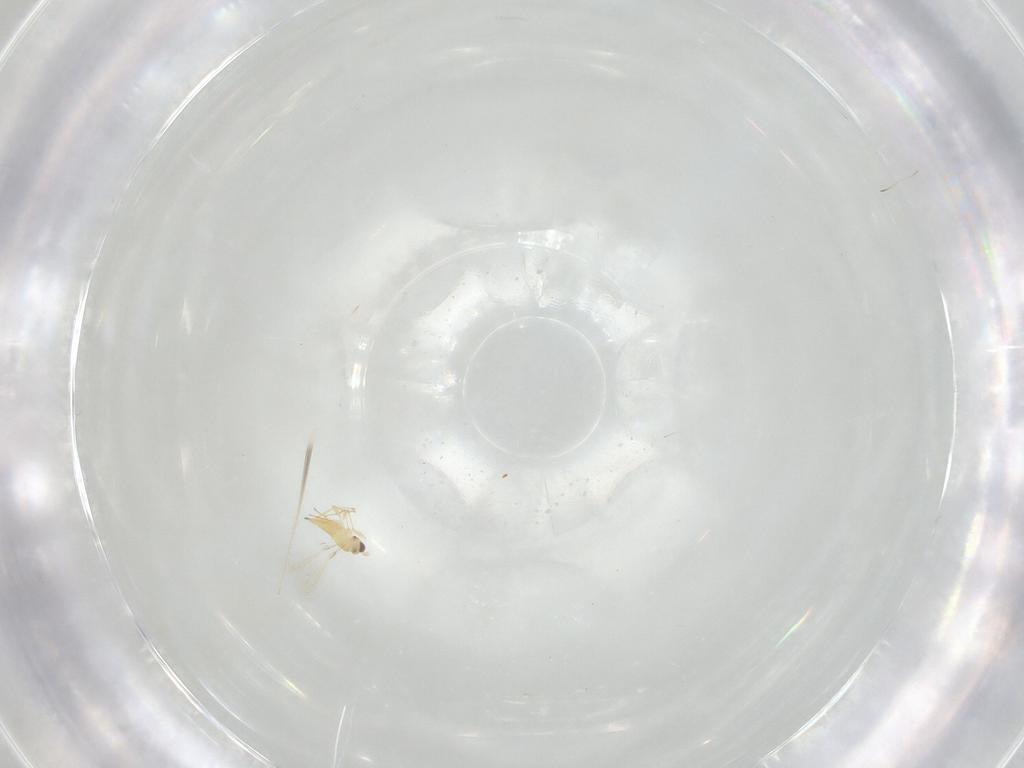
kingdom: Animalia
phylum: Arthropoda
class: Insecta
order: Hymenoptera
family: Mymaridae
